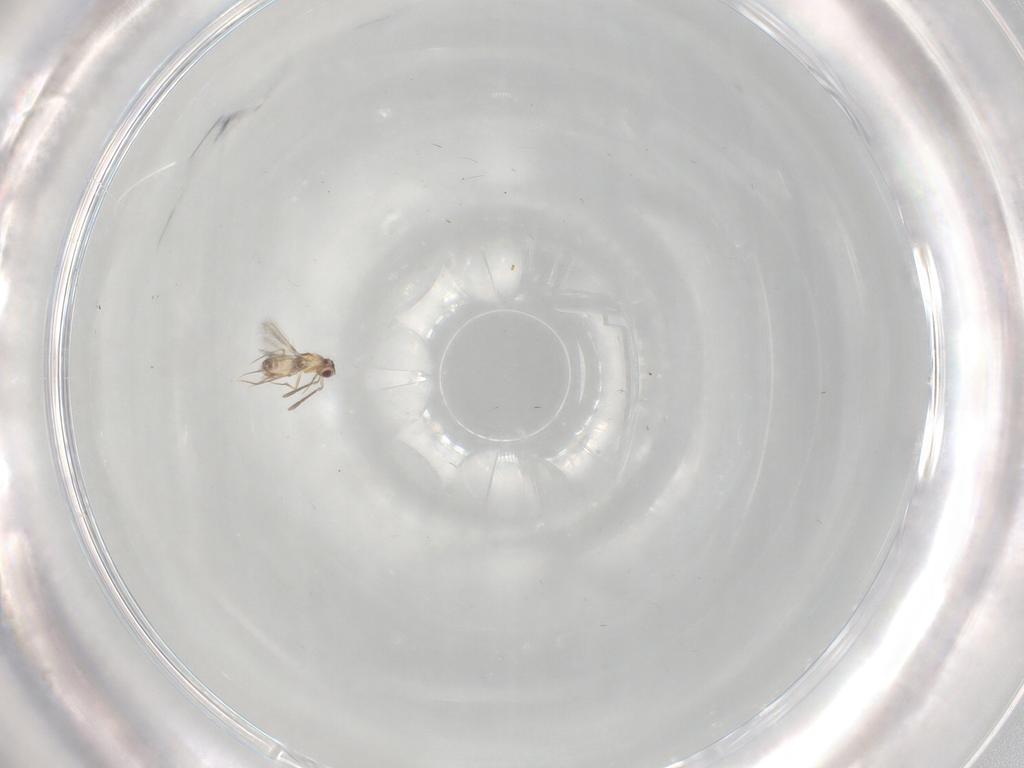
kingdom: Animalia
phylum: Arthropoda
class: Insecta
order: Hymenoptera
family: Mymaridae
